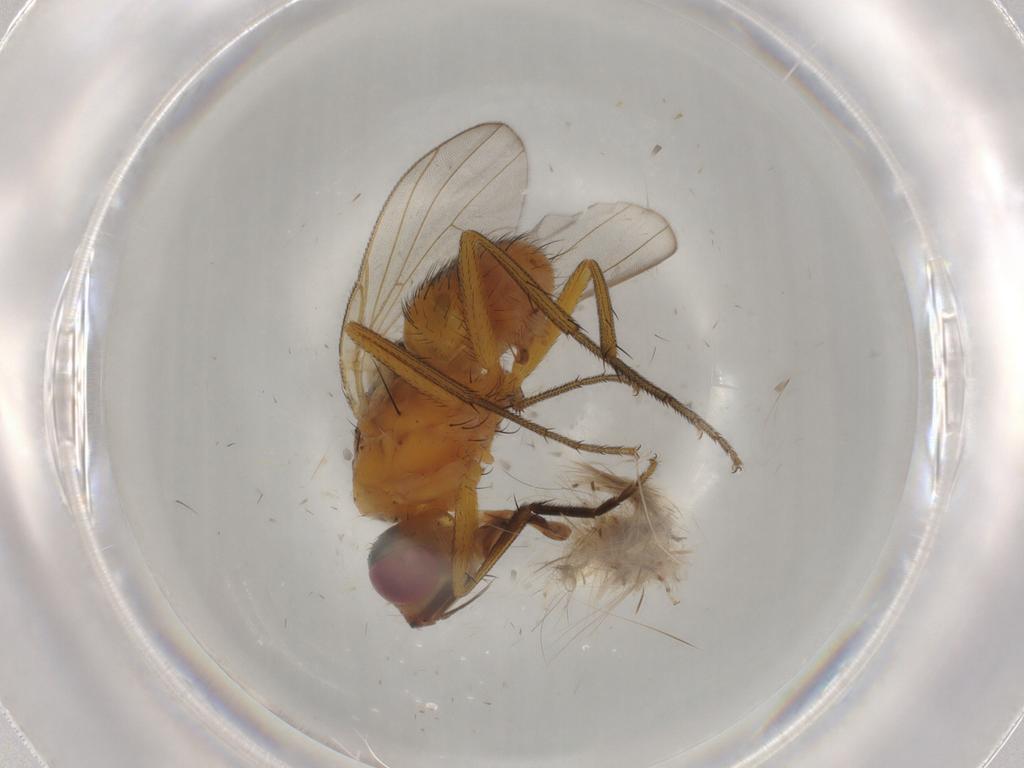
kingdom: Animalia
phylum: Arthropoda
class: Insecta
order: Diptera
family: Muscidae
